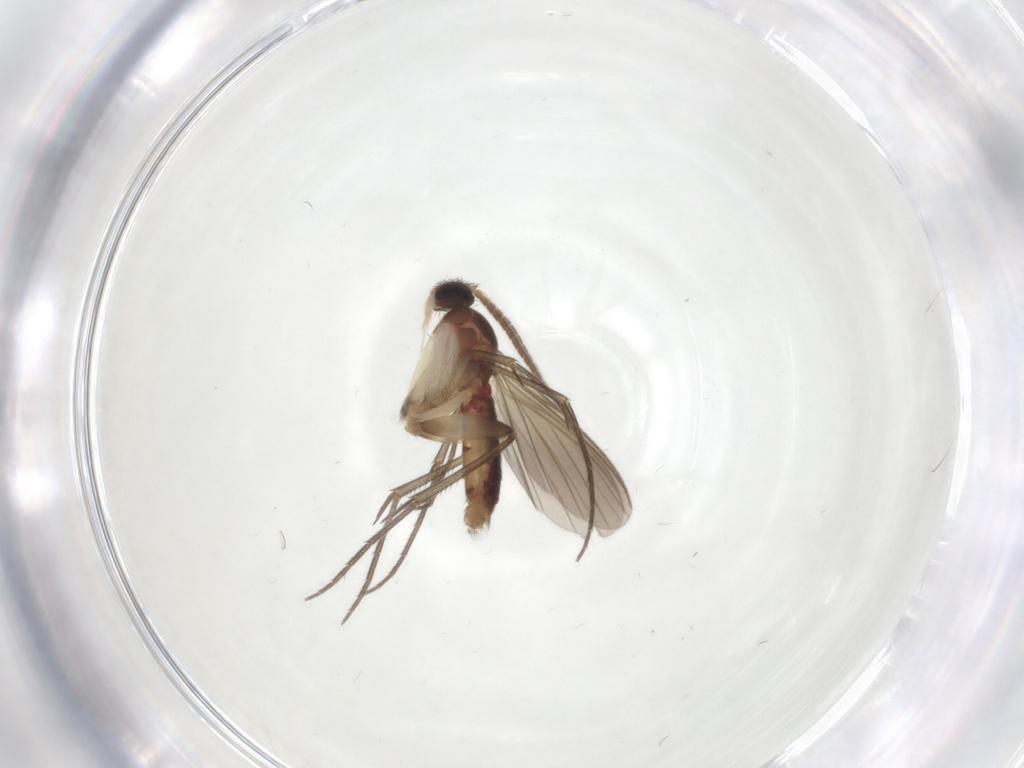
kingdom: Animalia
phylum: Arthropoda
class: Insecta
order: Diptera
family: Mycetophilidae
